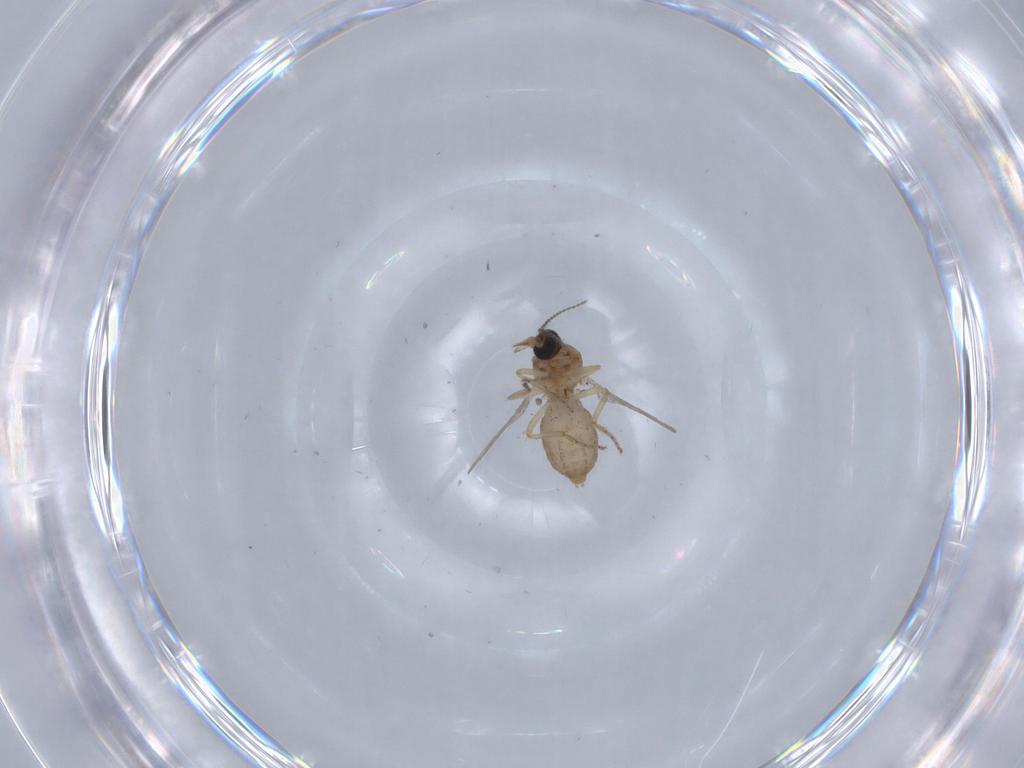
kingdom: Animalia
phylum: Arthropoda
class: Insecta
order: Diptera
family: Ceratopogonidae
